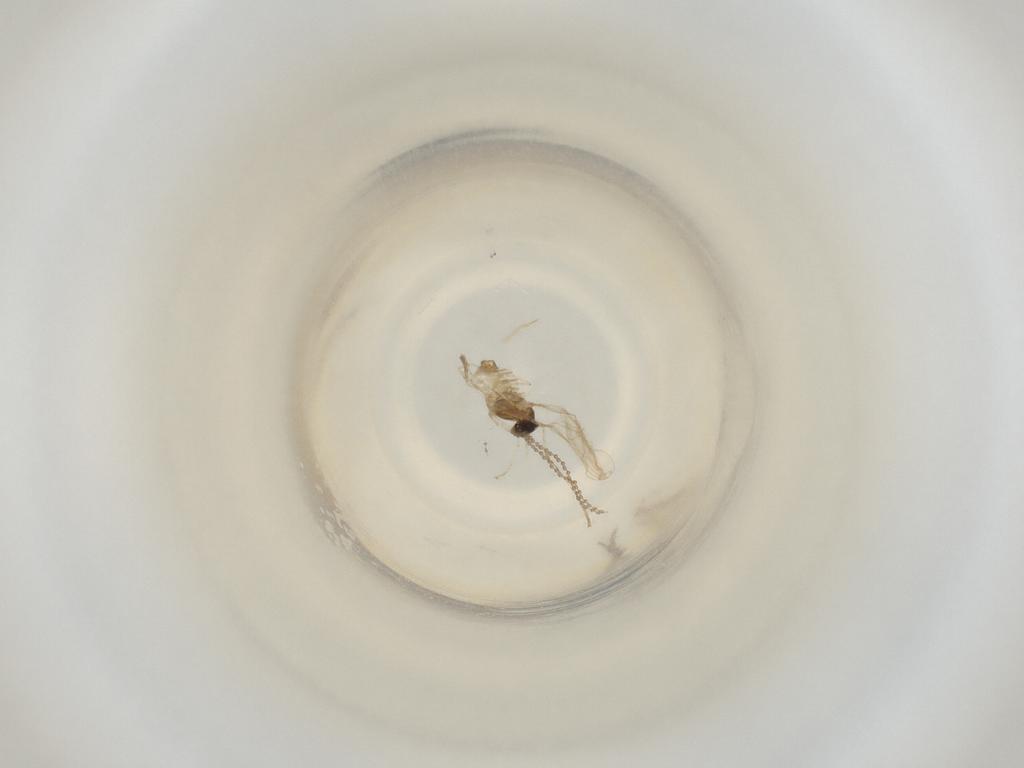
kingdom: Animalia
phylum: Arthropoda
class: Insecta
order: Diptera
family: Cecidomyiidae
